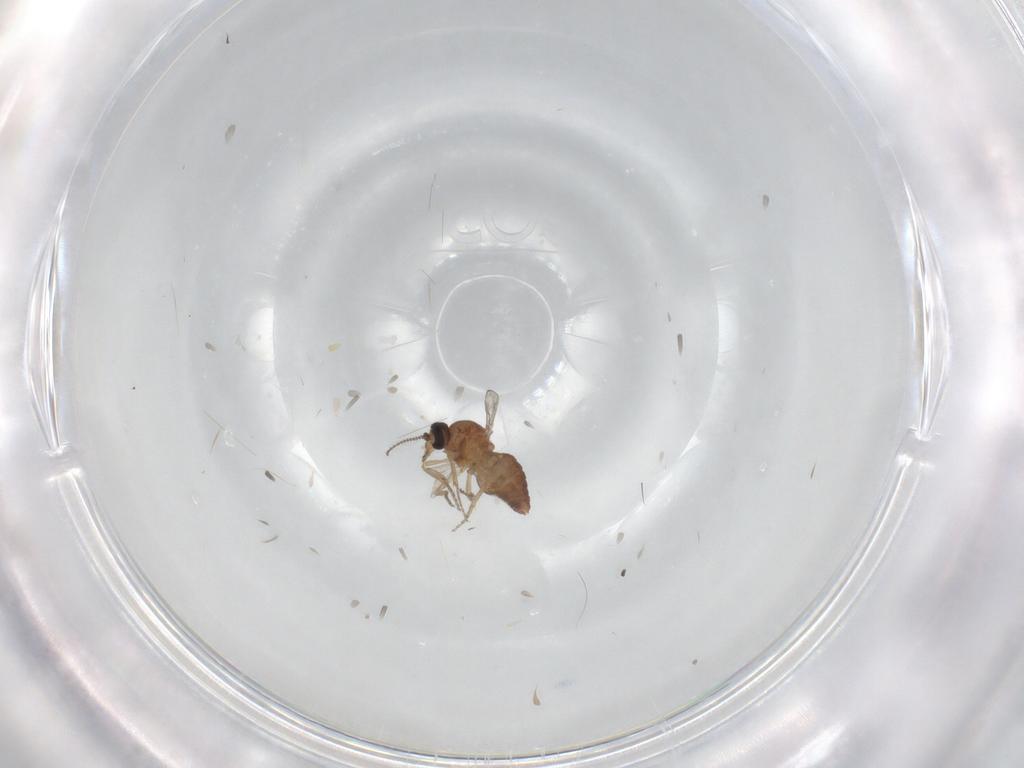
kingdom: Animalia
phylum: Arthropoda
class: Insecta
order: Diptera
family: Ceratopogonidae
